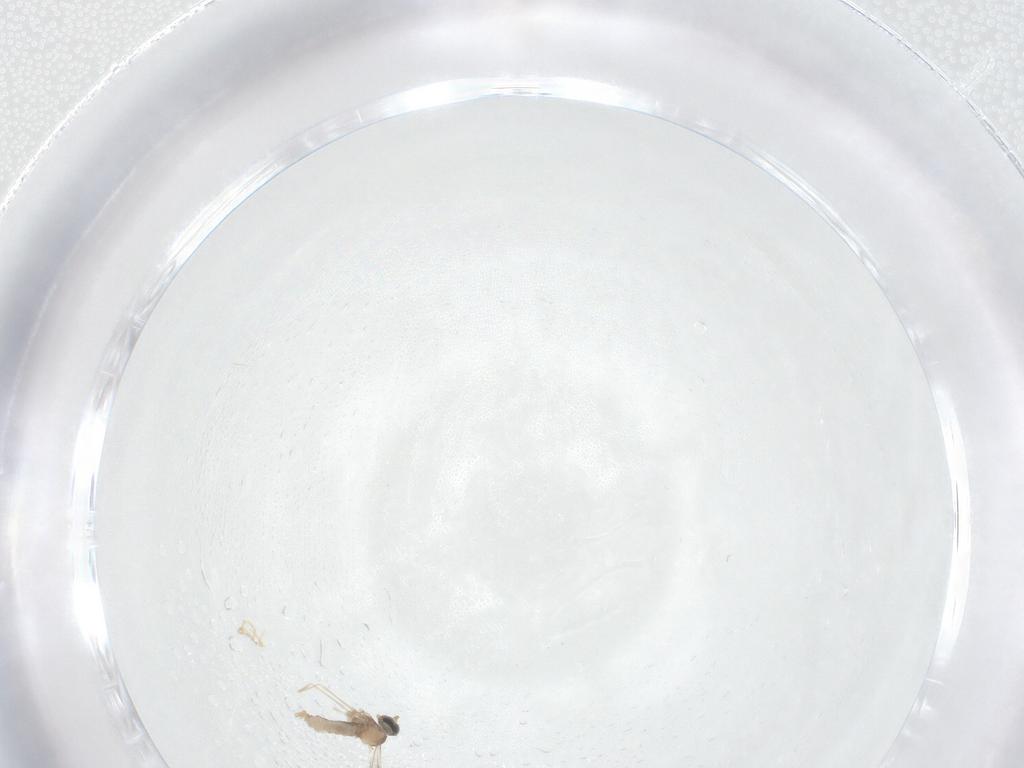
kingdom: Animalia
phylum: Arthropoda
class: Insecta
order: Diptera
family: Cecidomyiidae
